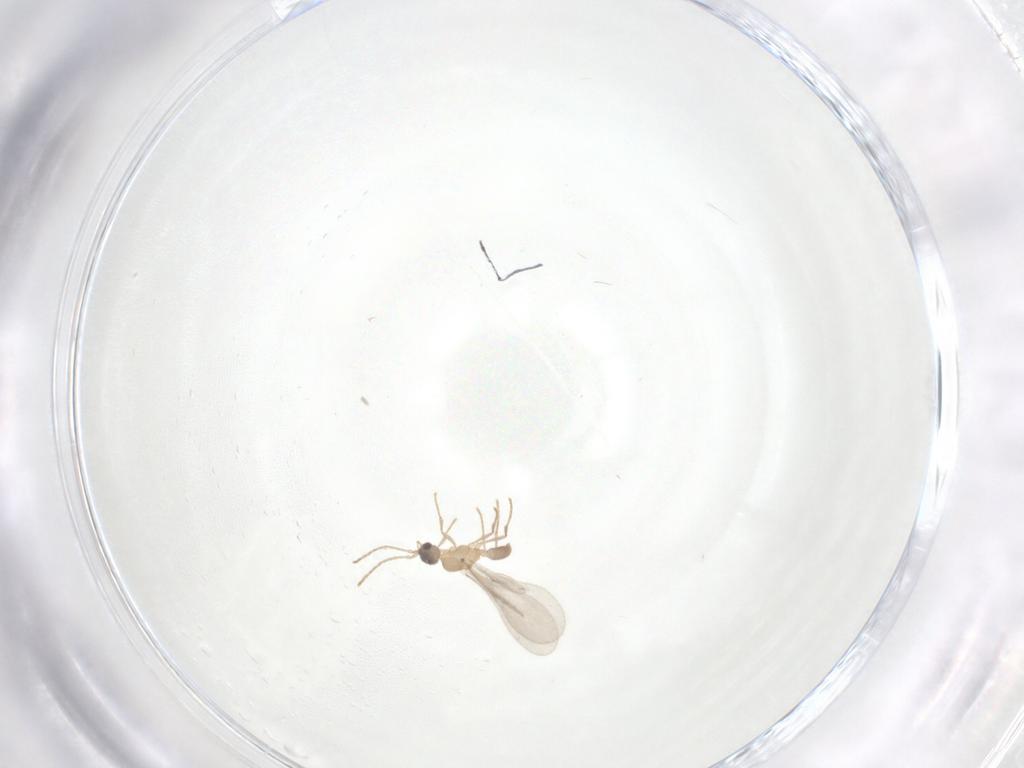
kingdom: Animalia
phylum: Arthropoda
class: Insecta
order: Hymenoptera
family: Formicidae
